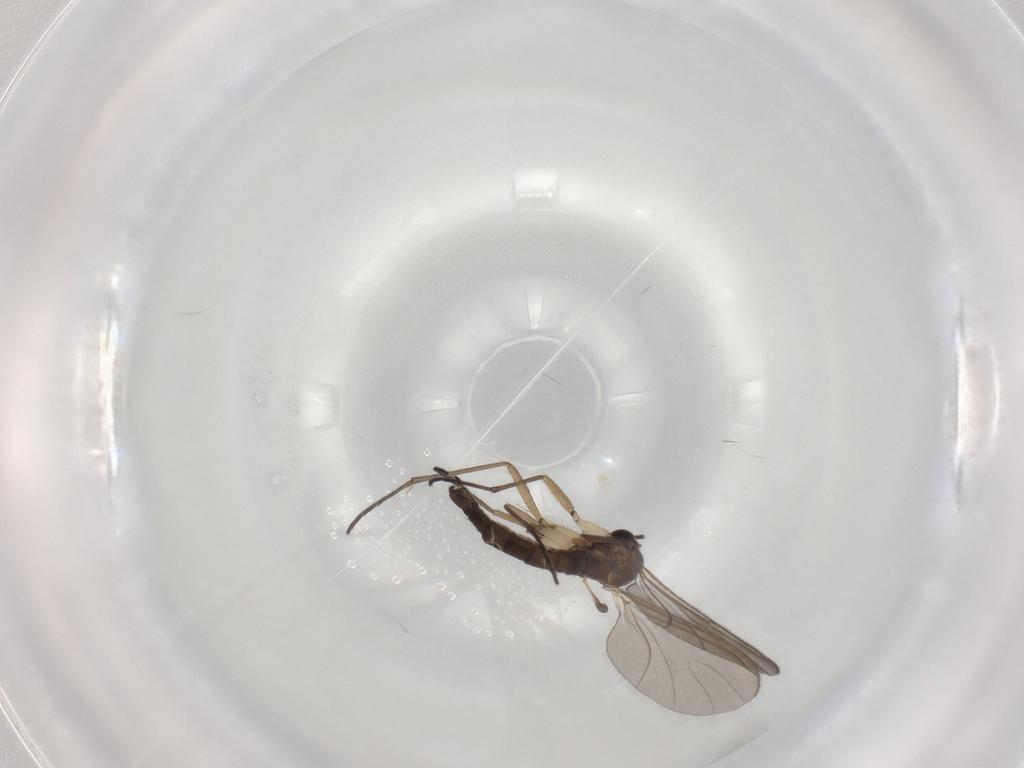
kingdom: Animalia
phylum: Arthropoda
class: Insecta
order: Diptera
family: Sciaridae
